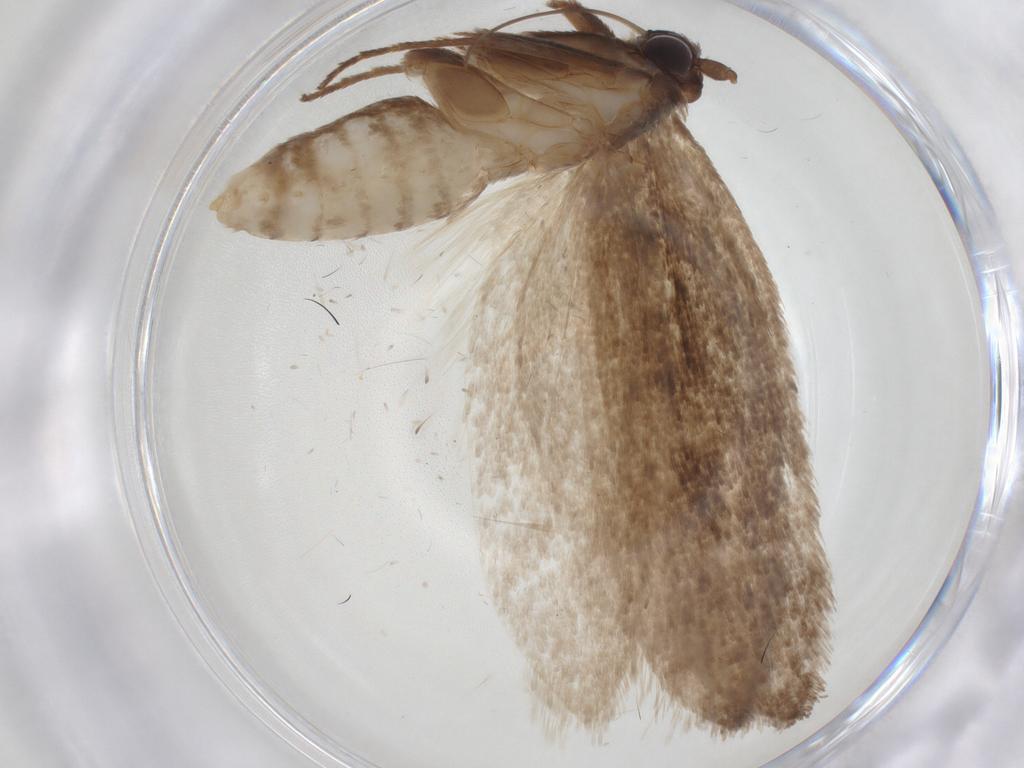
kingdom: Animalia
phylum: Arthropoda
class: Insecta
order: Lepidoptera
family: Roeslerstammiidae
